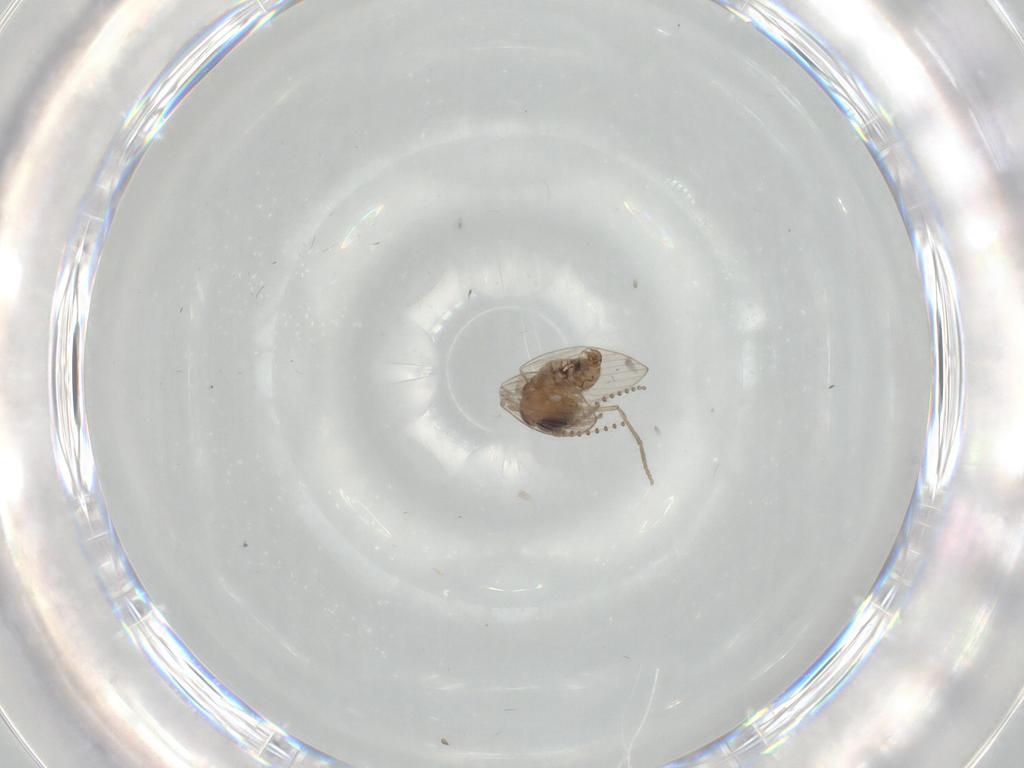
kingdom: Animalia
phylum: Arthropoda
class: Insecta
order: Diptera
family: Psychodidae
